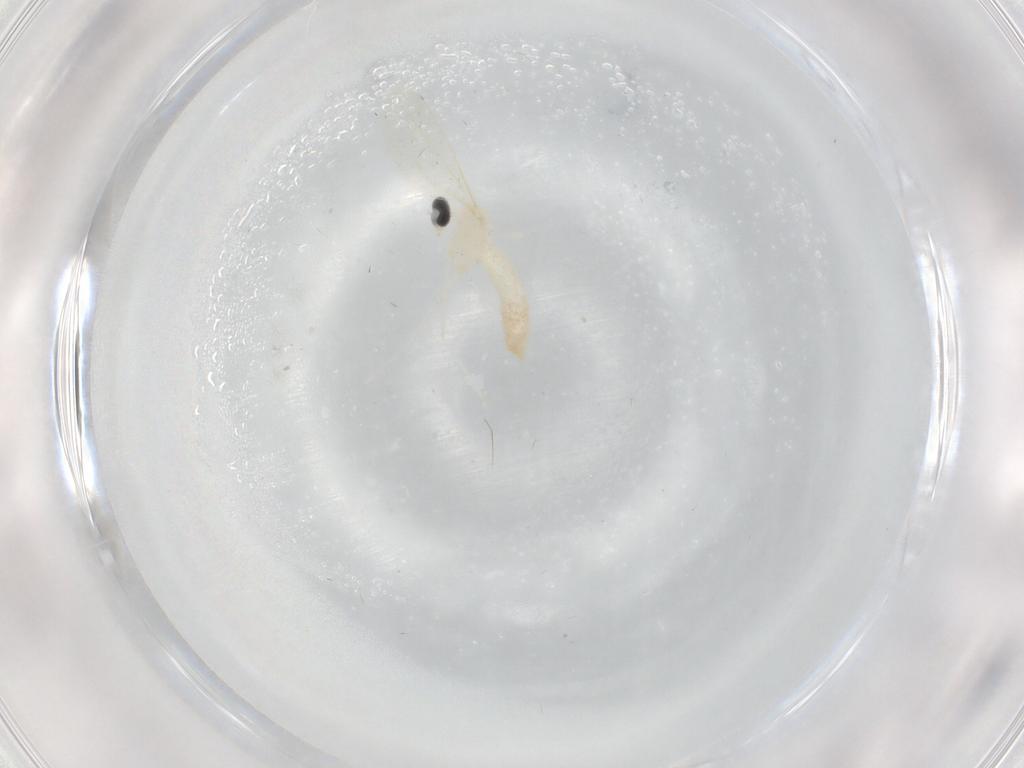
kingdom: Animalia
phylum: Arthropoda
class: Insecta
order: Diptera
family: Cecidomyiidae
